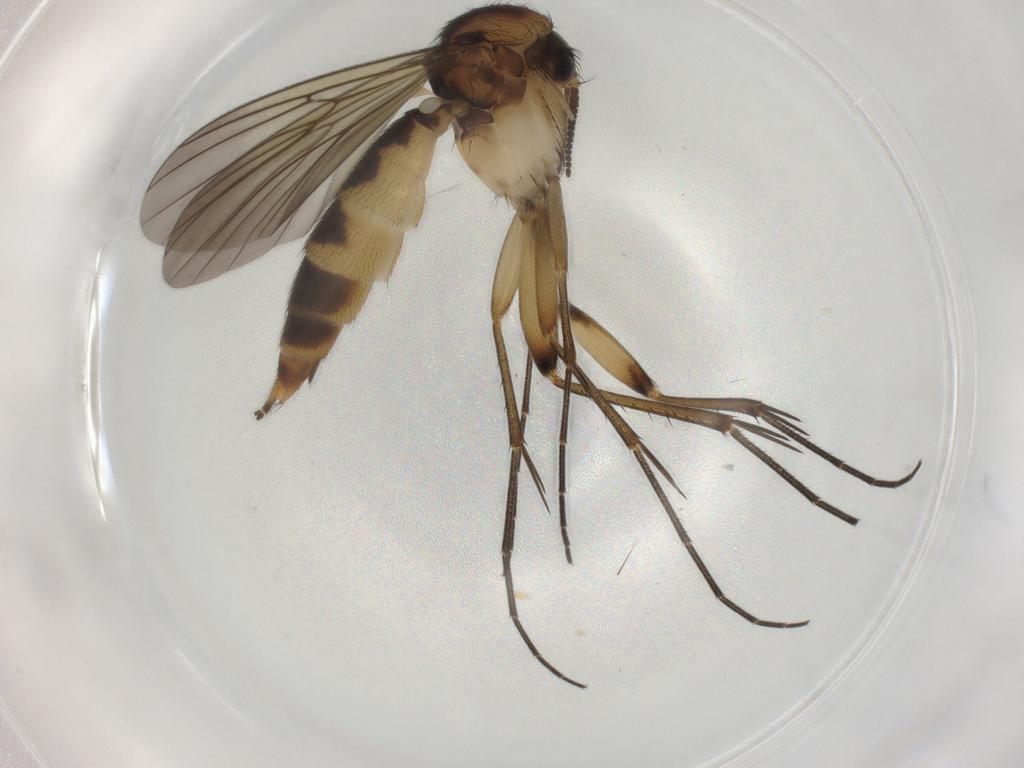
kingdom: Animalia
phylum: Arthropoda
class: Insecta
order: Diptera
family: Mycetophilidae
